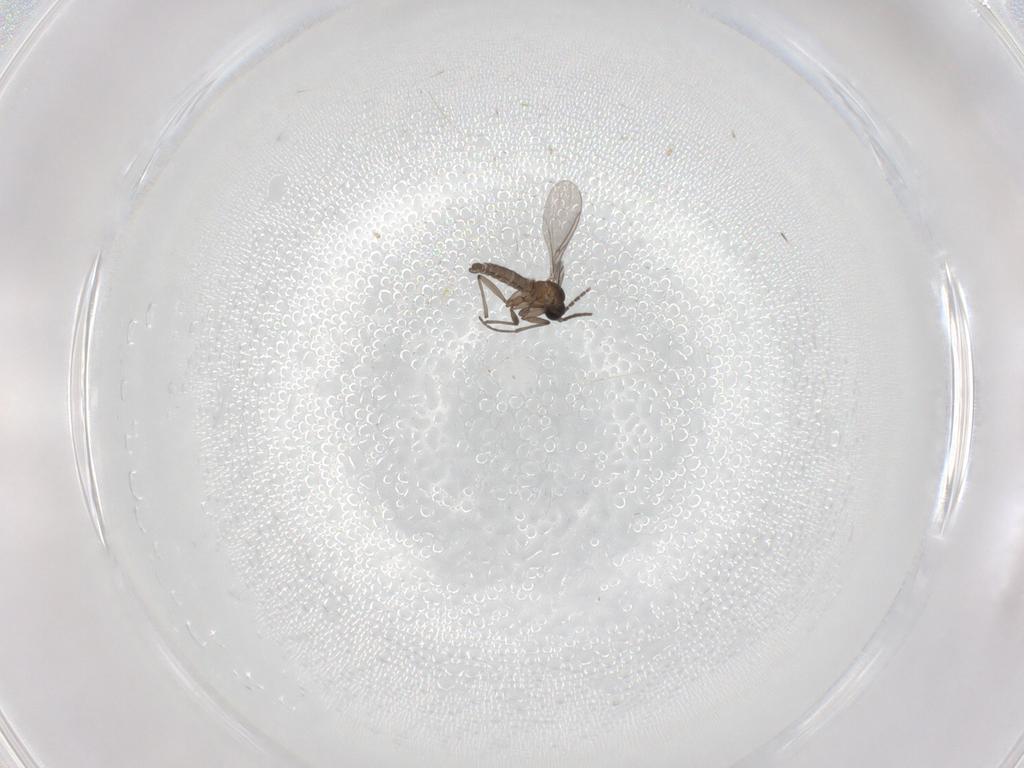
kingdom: Animalia
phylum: Arthropoda
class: Insecta
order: Diptera
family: Sciaridae
